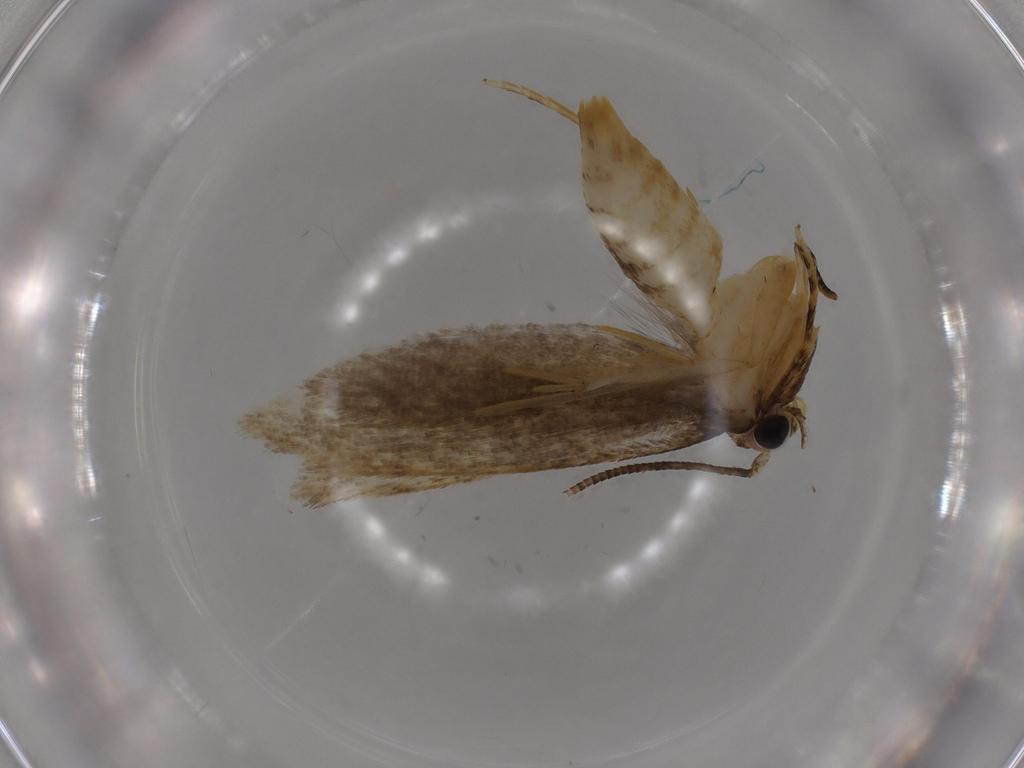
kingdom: Animalia
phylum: Arthropoda
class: Insecta
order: Lepidoptera
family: Tineidae
